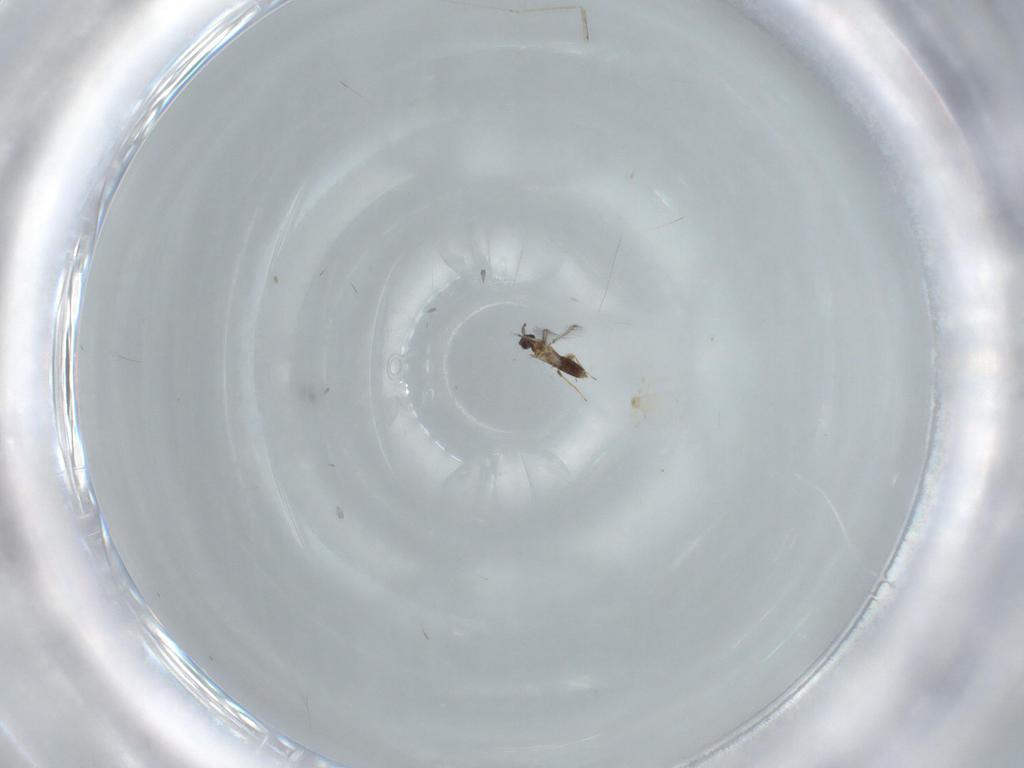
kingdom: Animalia
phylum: Arthropoda
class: Insecta
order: Hymenoptera
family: Mymaridae
